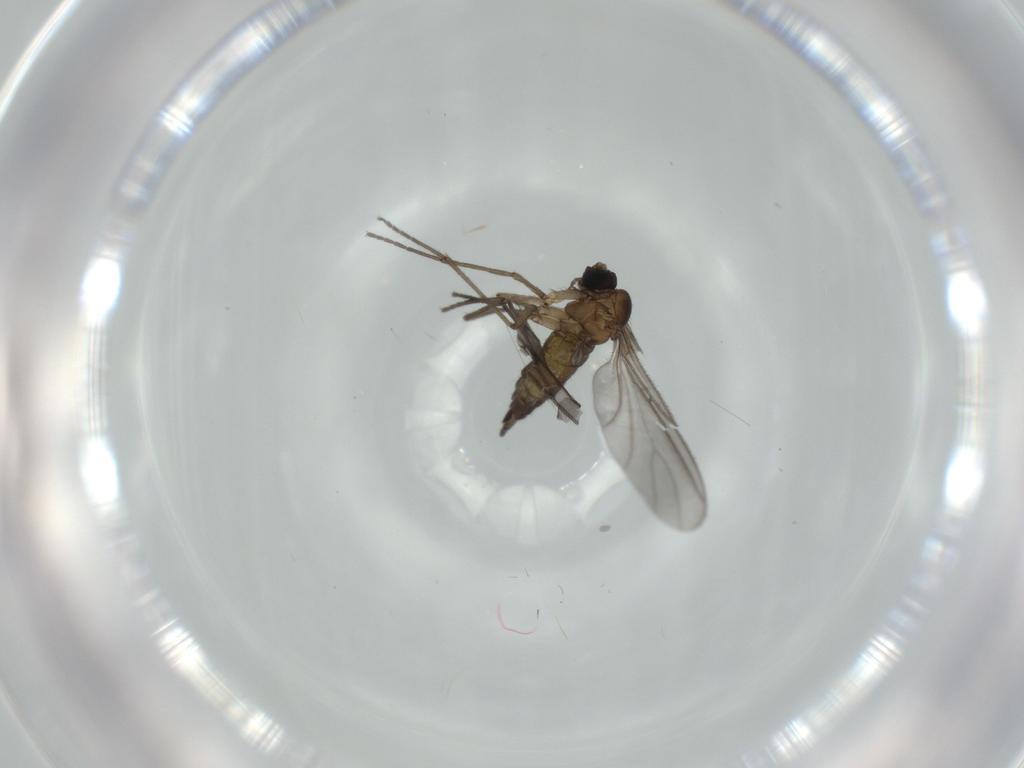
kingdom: Animalia
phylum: Arthropoda
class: Insecta
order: Diptera
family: Sciaridae
